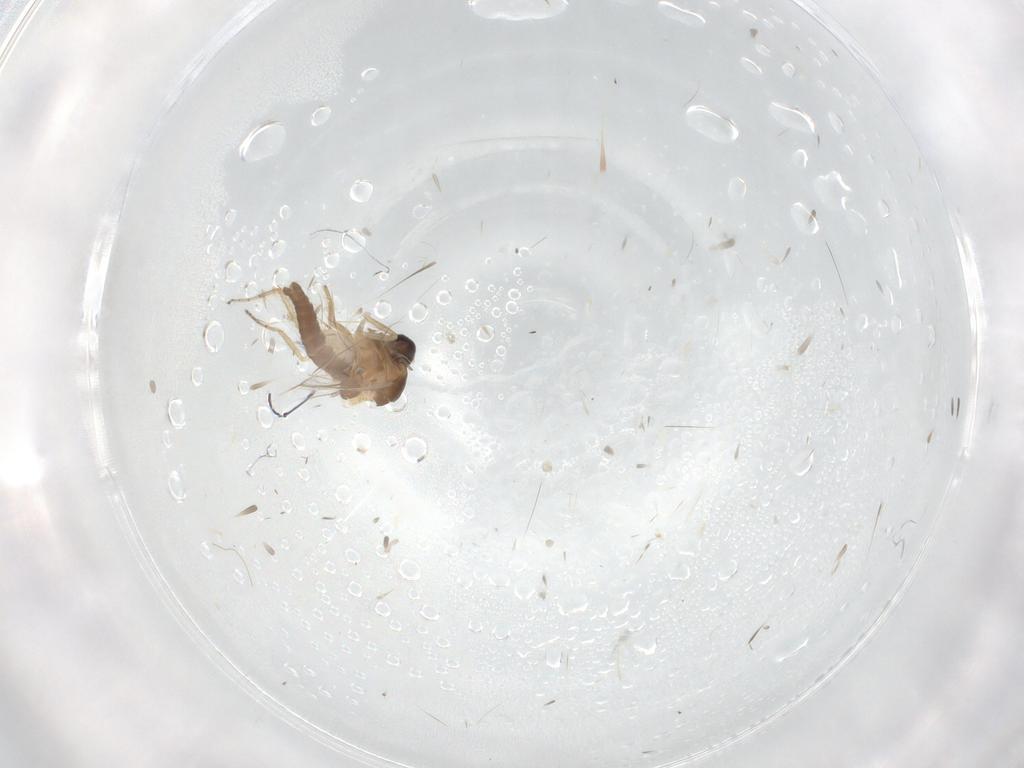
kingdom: Animalia
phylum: Arthropoda
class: Insecta
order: Diptera
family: Ceratopogonidae
